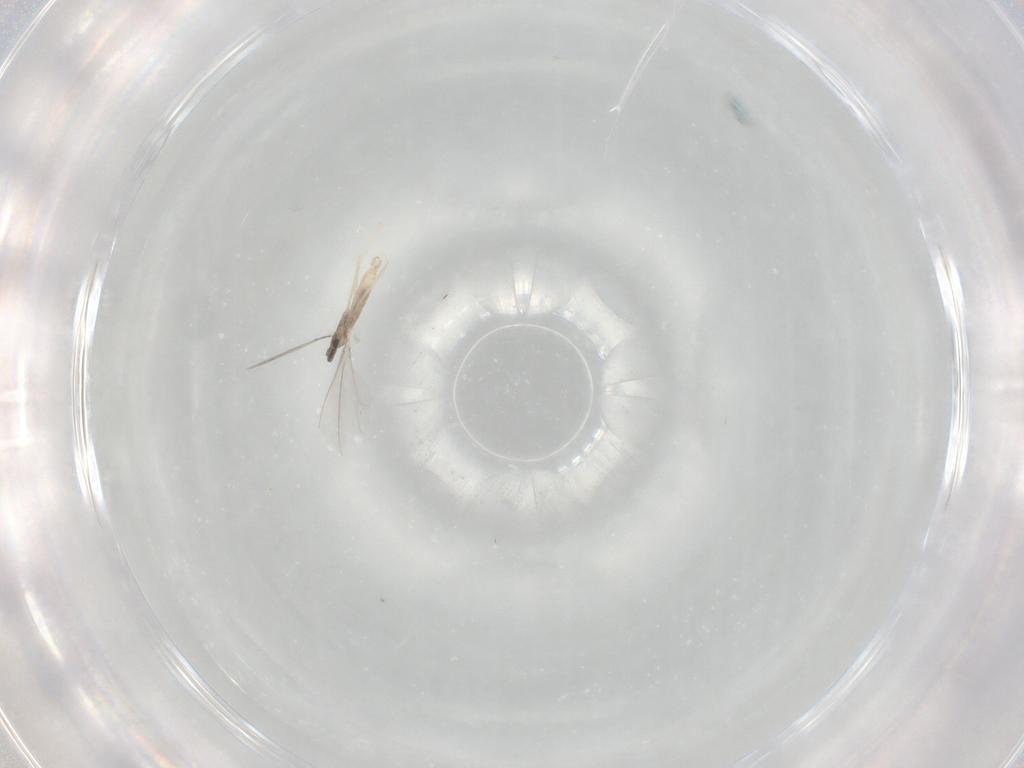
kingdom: Animalia
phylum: Arthropoda
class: Insecta
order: Diptera
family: Cecidomyiidae
